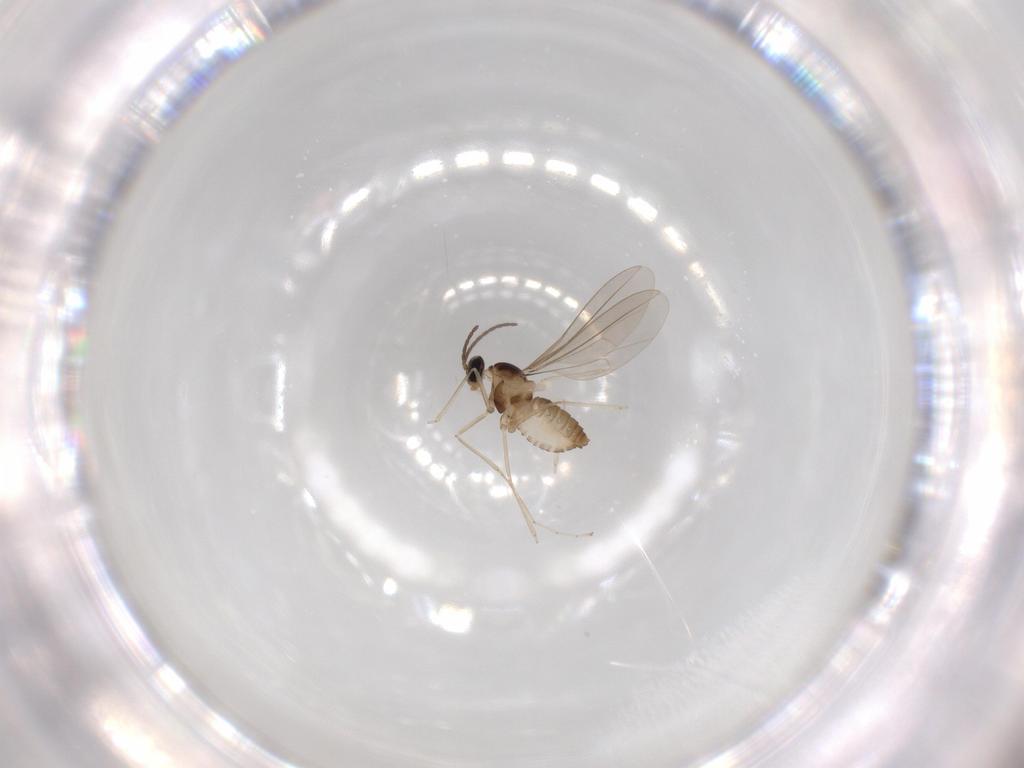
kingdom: Animalia
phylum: Arthropoda
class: Insecta
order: Diptera
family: Cecidomyiidae
